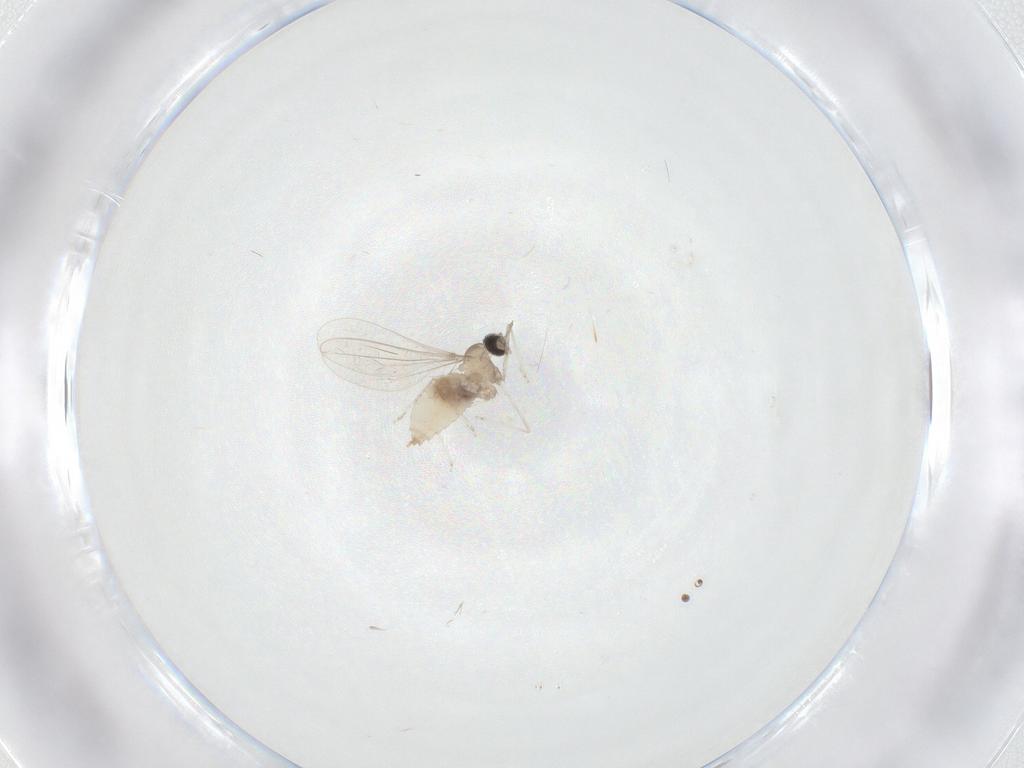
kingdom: Animalia
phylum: Arthropoda
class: Insecta
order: Diptera
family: Cecidomyiidae
